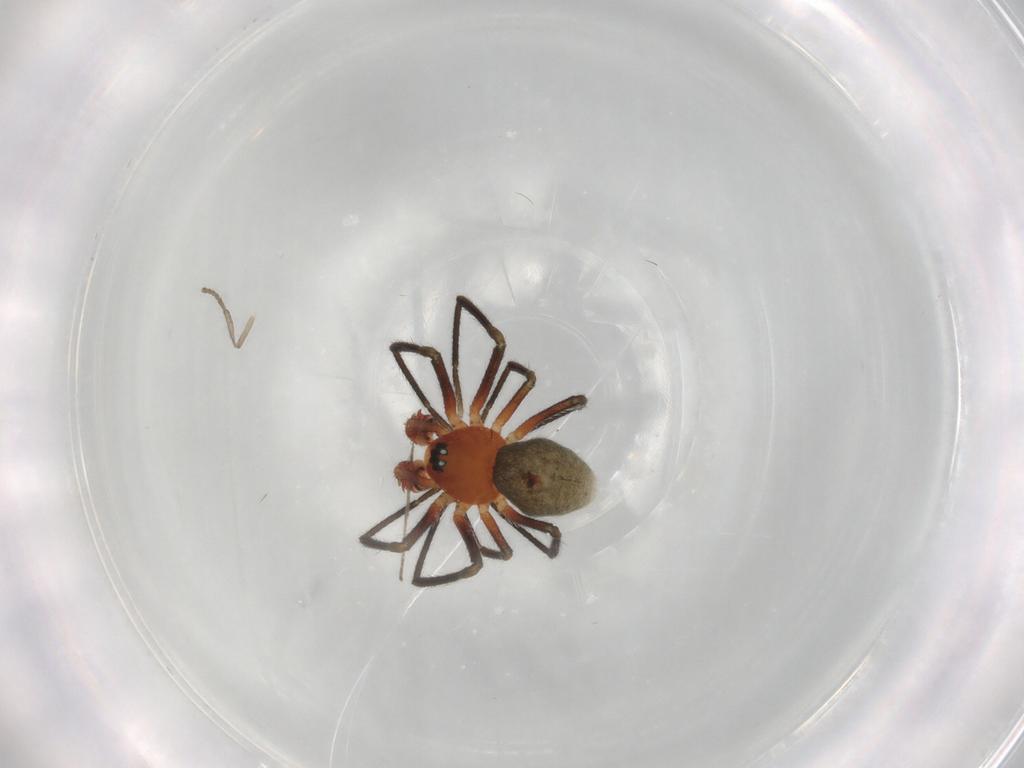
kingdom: Animalia
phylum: Arthropoda
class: Arachnida
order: Araneae
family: Linyphiidae
